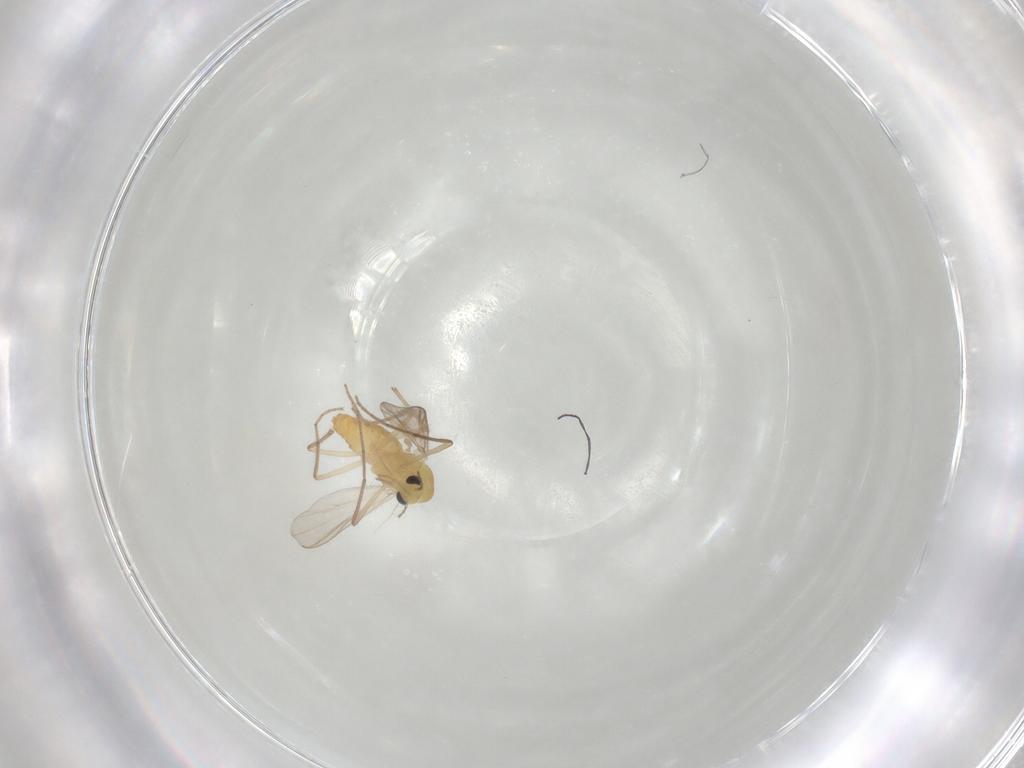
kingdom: Animalia
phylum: Arthropoda
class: Insecta
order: Diptera
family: Chironomidae
